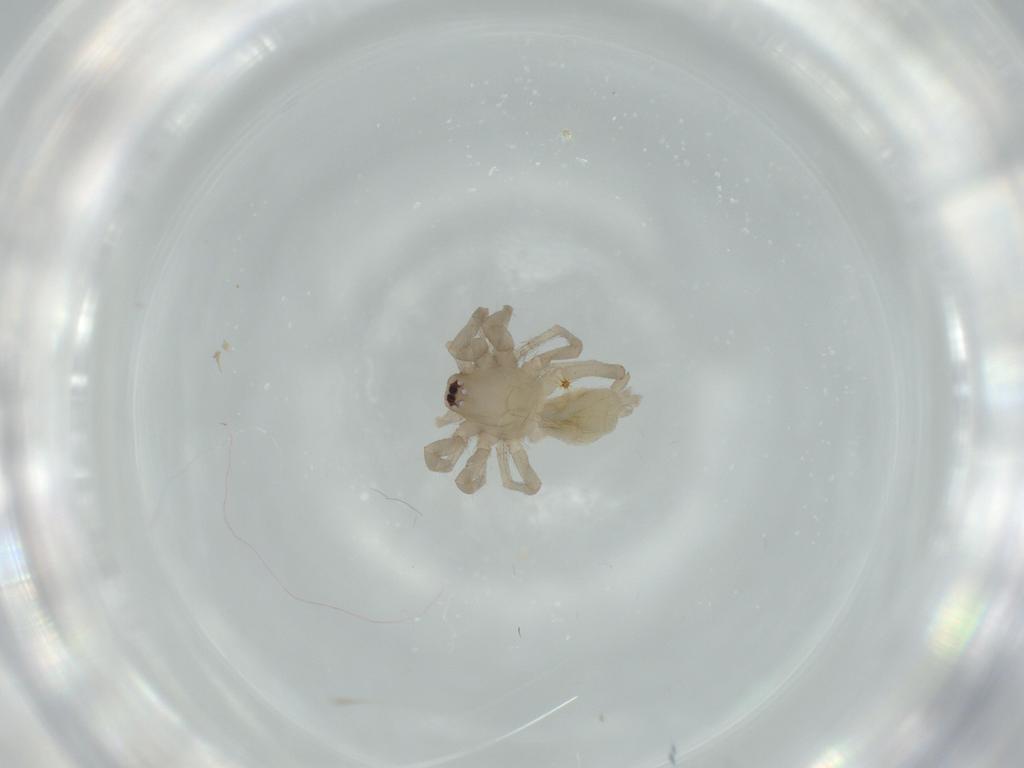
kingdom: Animalia
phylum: Arthropoda
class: Arachnida
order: Araneae
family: Gnaphosidae
